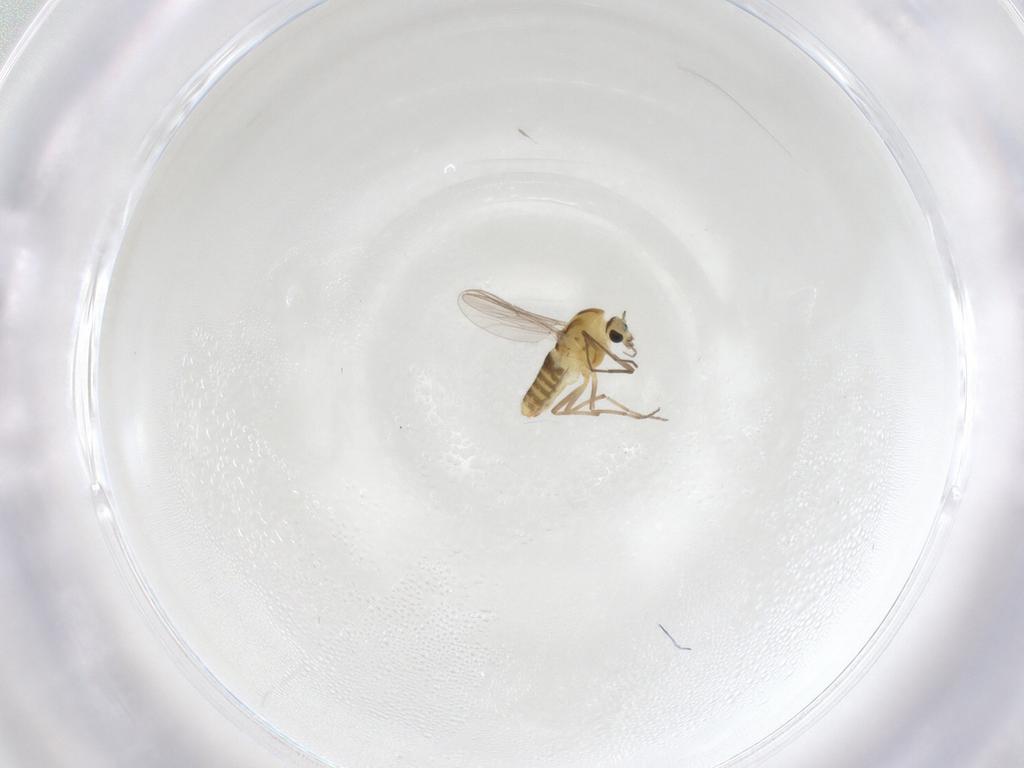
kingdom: Animalia
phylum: Arthropoda
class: Insecta
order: Diptera
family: Chironomidae
